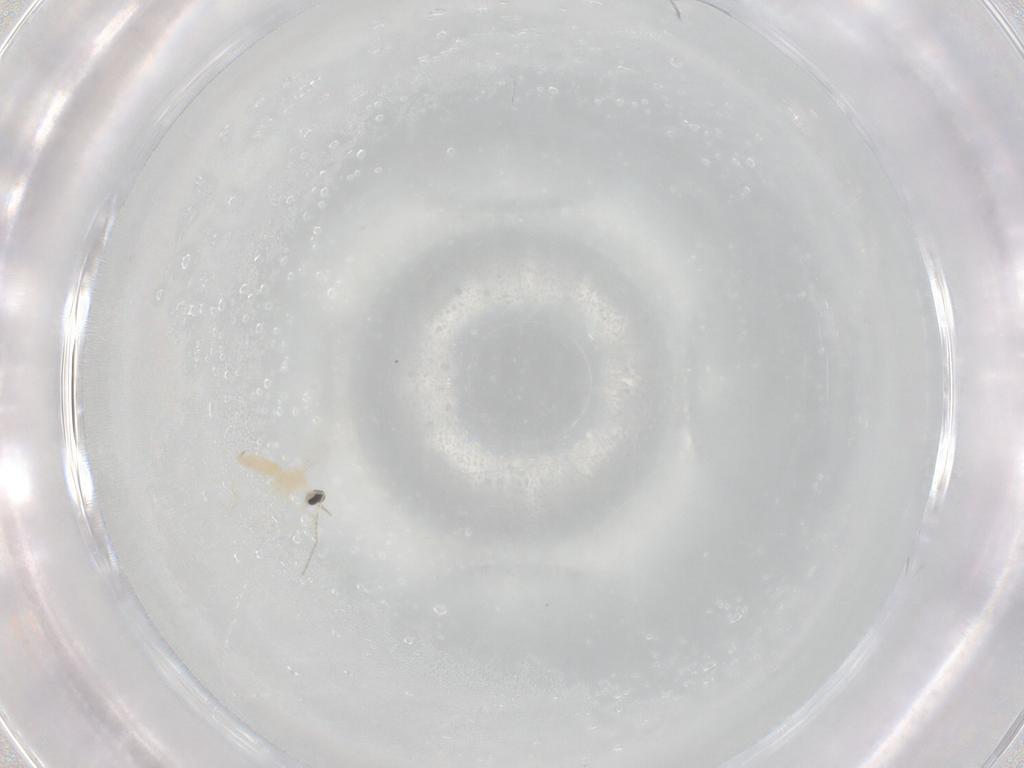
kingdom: Animalia
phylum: Arthropoda
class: Insecta
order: Diptera
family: Cecidomyiidae
